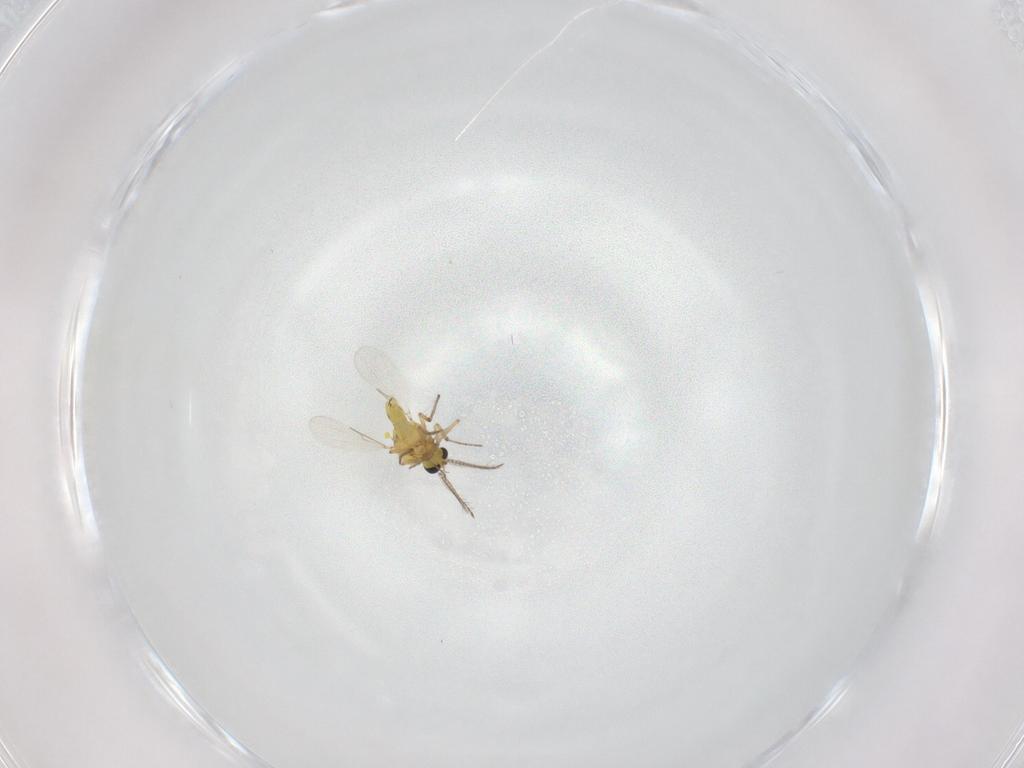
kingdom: Animalia
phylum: Arthropoda
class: Insecta
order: Diptera
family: Ceratopogonidae
